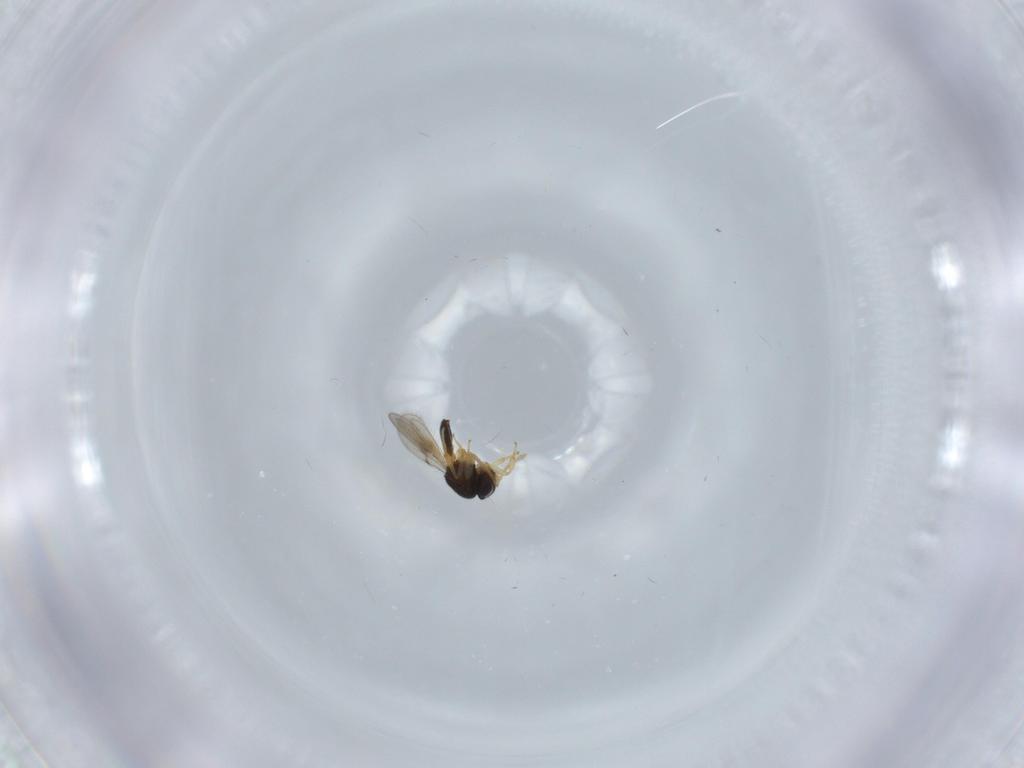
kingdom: Animalia
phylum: Arthropoda
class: Insecta
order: Hymenoptera
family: Scelionidae
